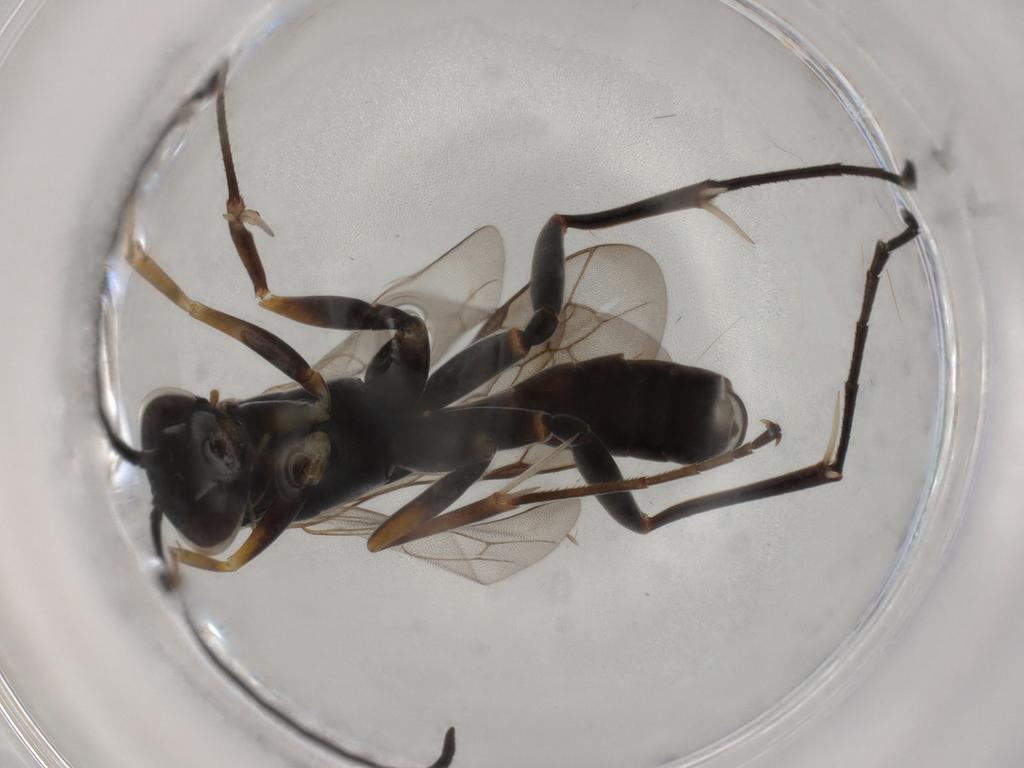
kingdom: Animalia
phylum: Arthropoda
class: Insecta
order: Hymenoptera
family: Pompilidae
